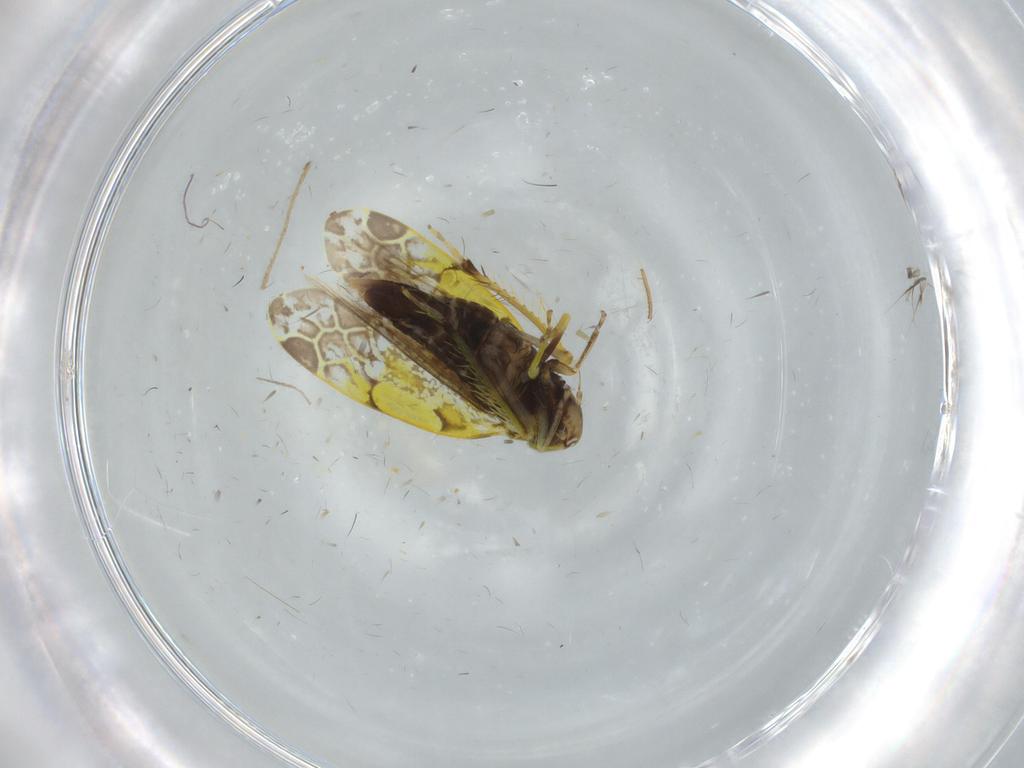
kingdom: Animalia
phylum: Arthropoda
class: Insecta
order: Hemiptera
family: Cicadellidae
